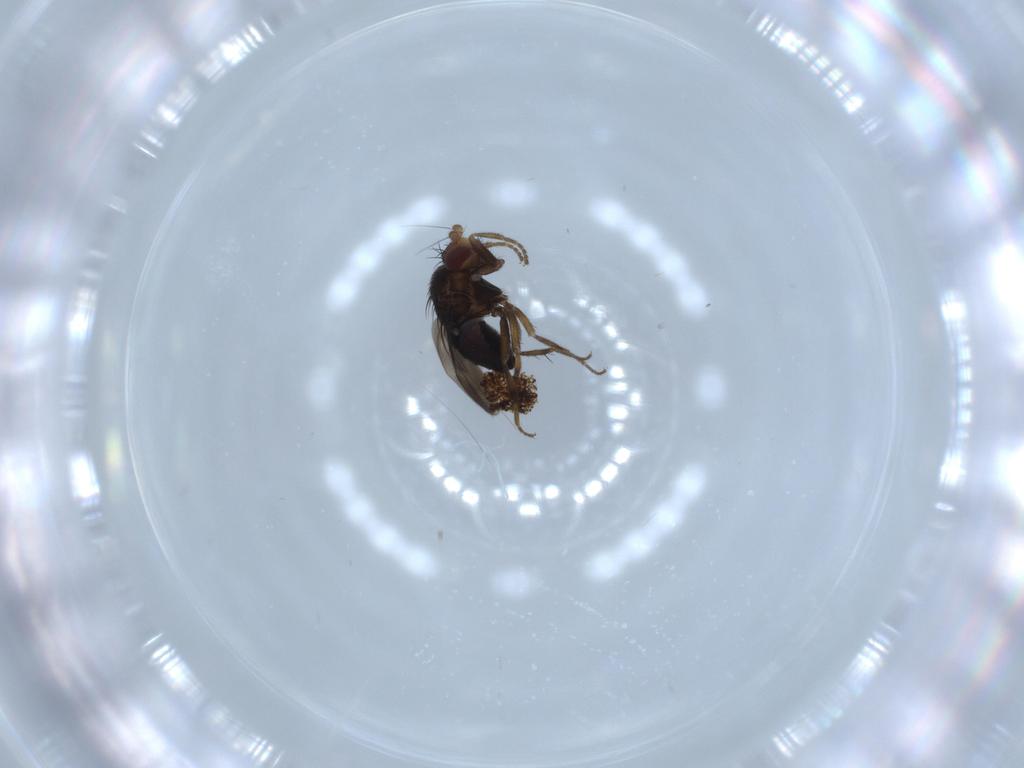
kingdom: Animalia
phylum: Arthropoda
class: Insecta
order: Diptera
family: Sphaeroceridae
